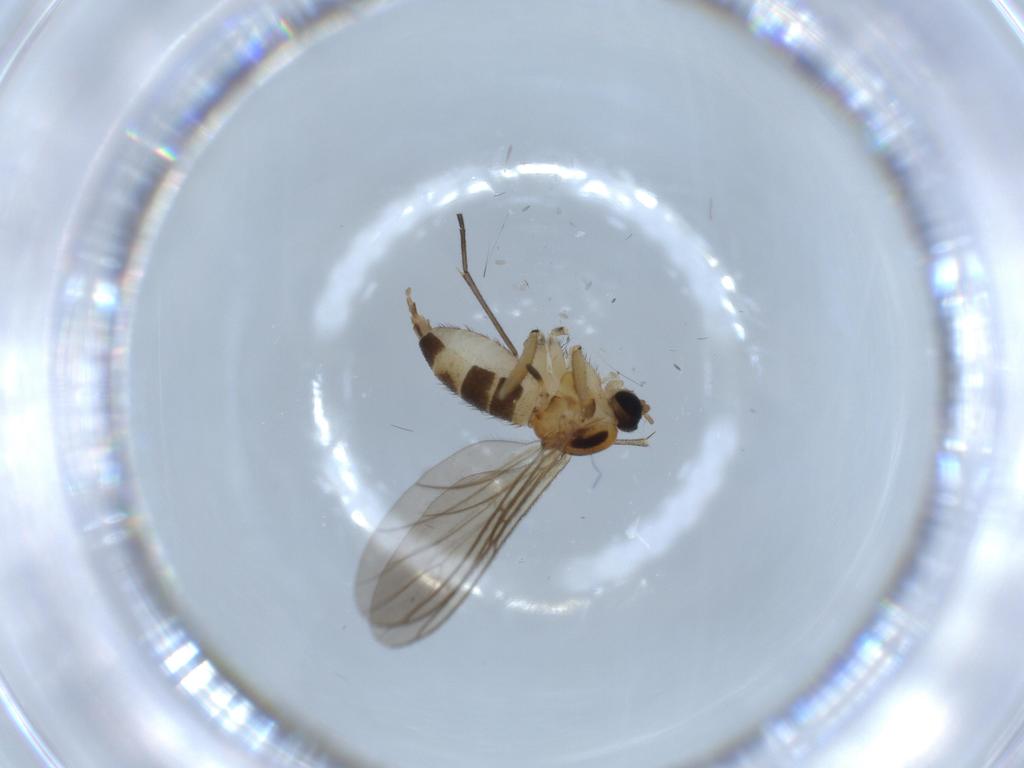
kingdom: Animalia
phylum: Arthropoda
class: Insecta
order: Diptera
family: Sciaridae
